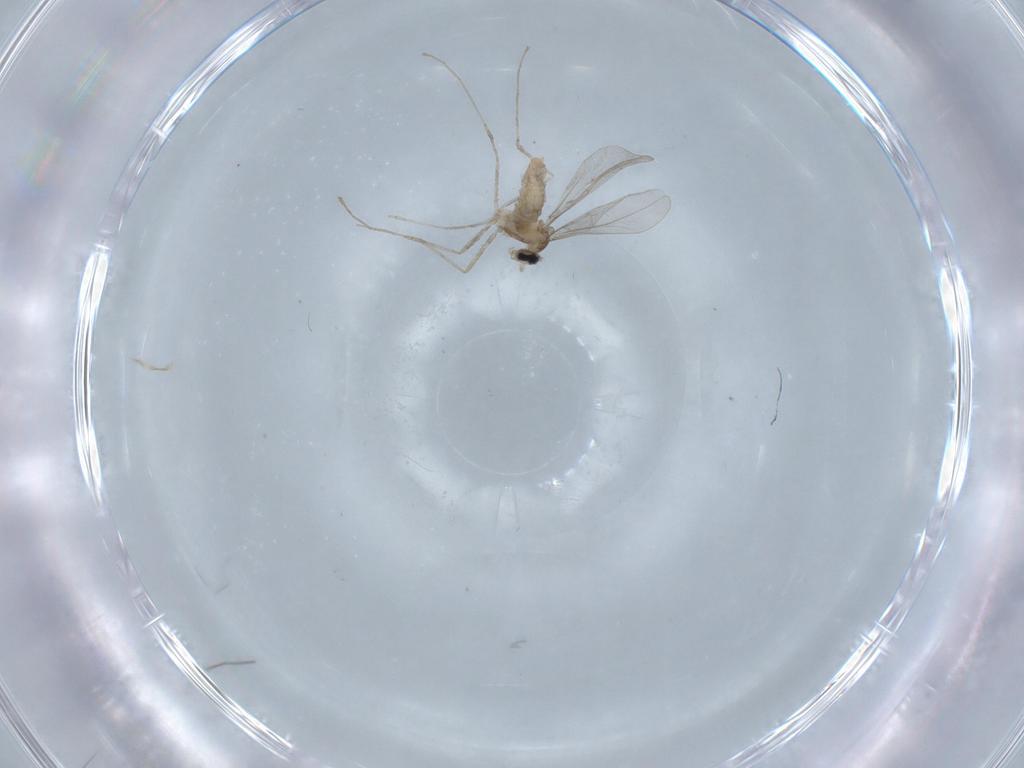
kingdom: Animalia
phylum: Arthropoda
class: Insecta
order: Diptera
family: Cecidomyiidae
